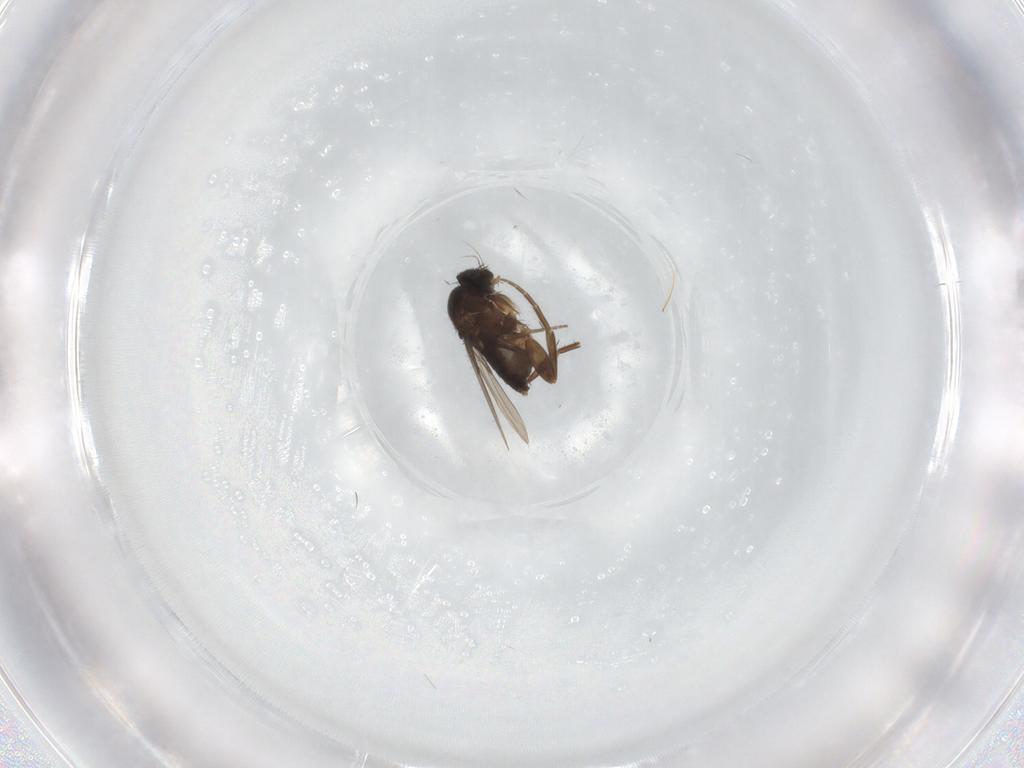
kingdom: Animalia
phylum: Arthropoda
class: Insecta
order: Diptera
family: Phoridae
